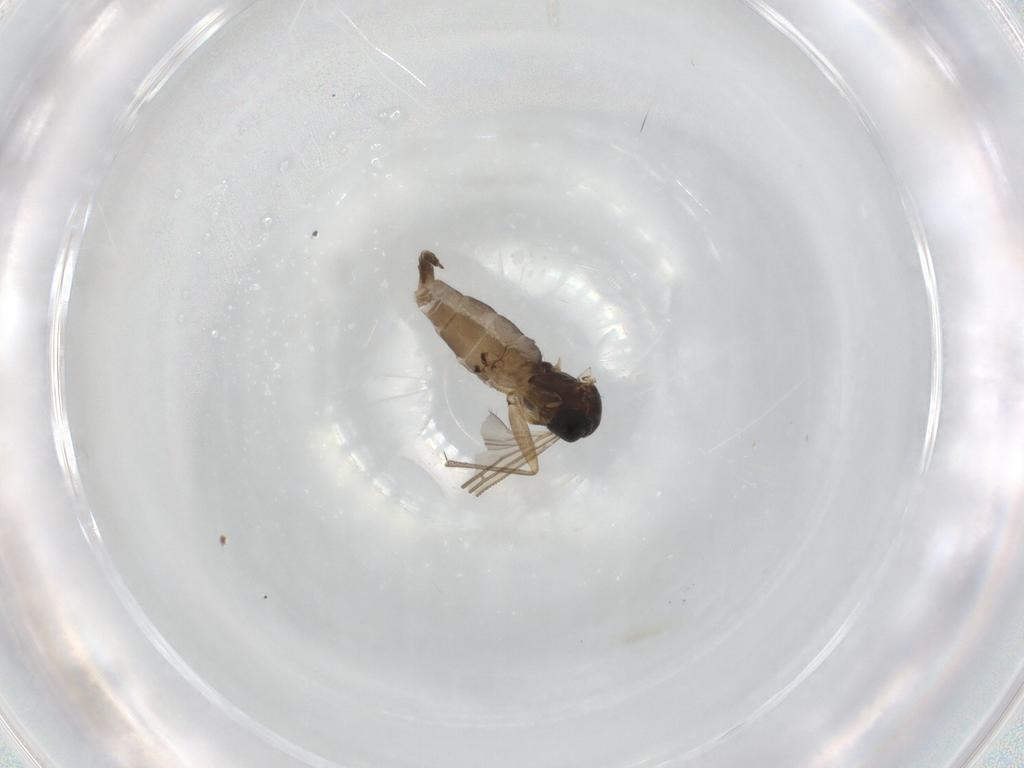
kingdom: Animalia
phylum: Arthropoda
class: Insecta
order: Diptera
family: Sciaridae
